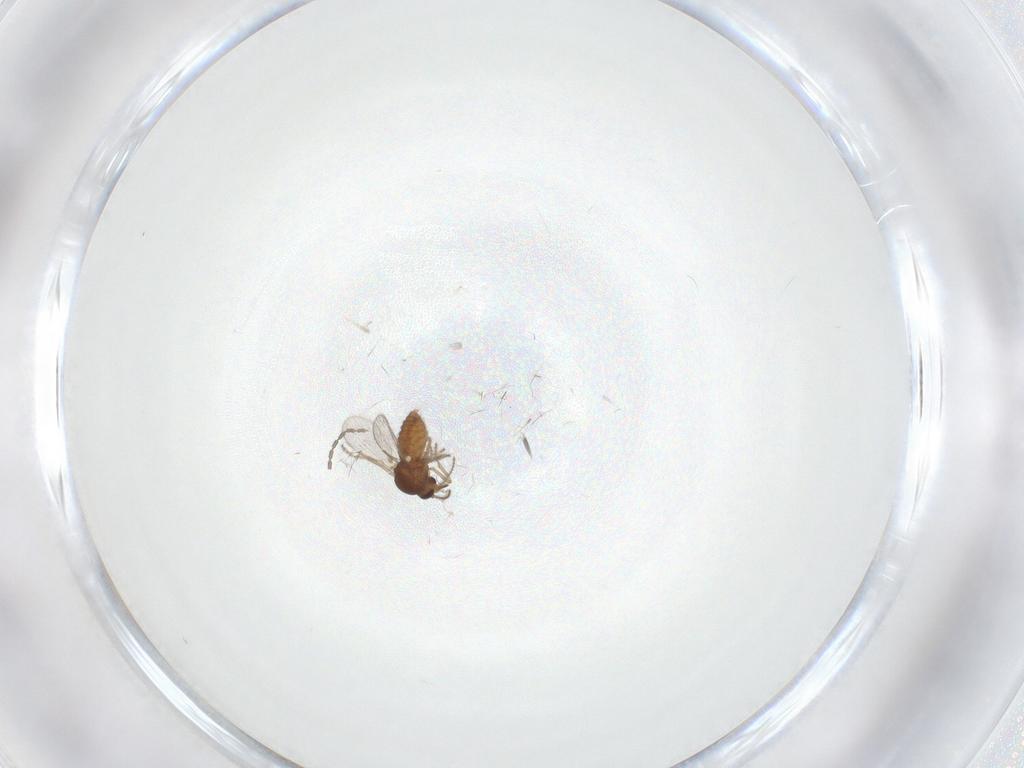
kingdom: Animalia
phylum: Arthropoda
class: Insecta
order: Diptera
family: Ceratopogonidae
